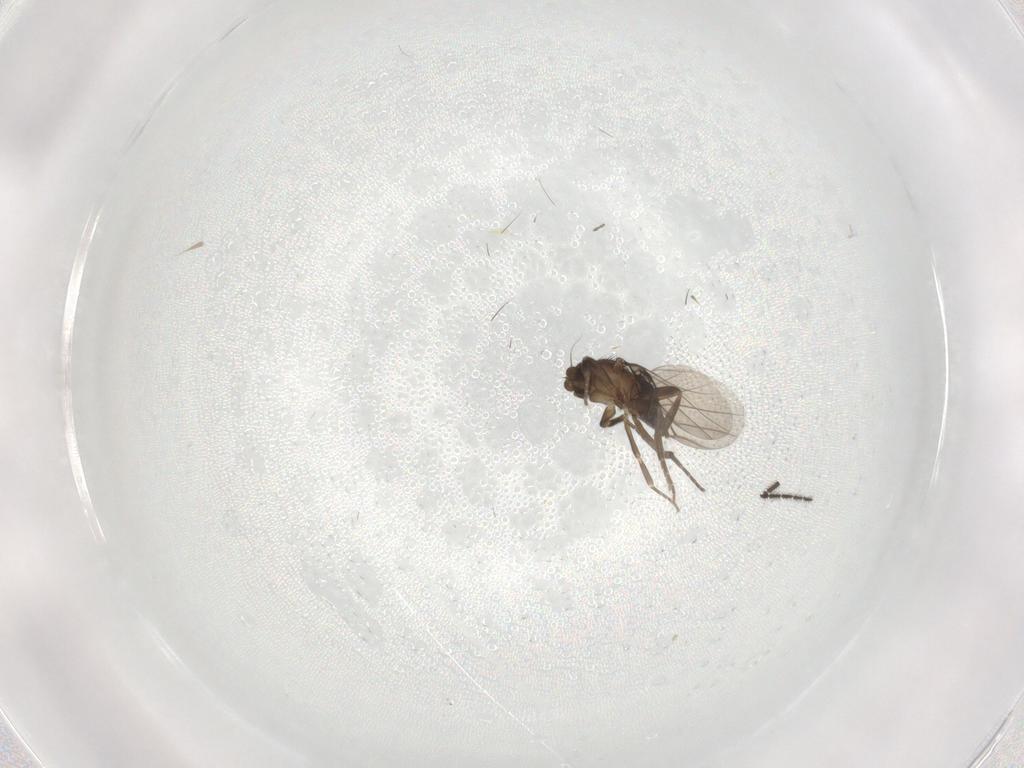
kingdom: Animalia
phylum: Arthropoda
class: Insecta
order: Diptera
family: Phoridae
